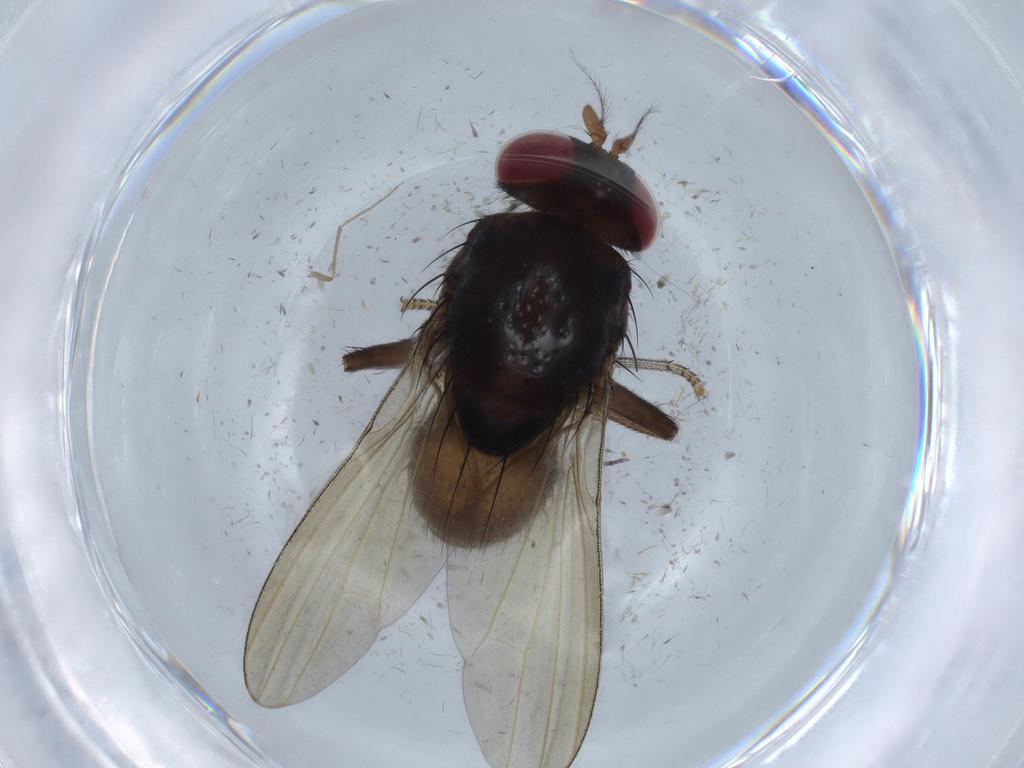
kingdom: Animalia
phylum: Arthropoda
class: Insecta
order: Diptera
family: Ceratopogonidae
